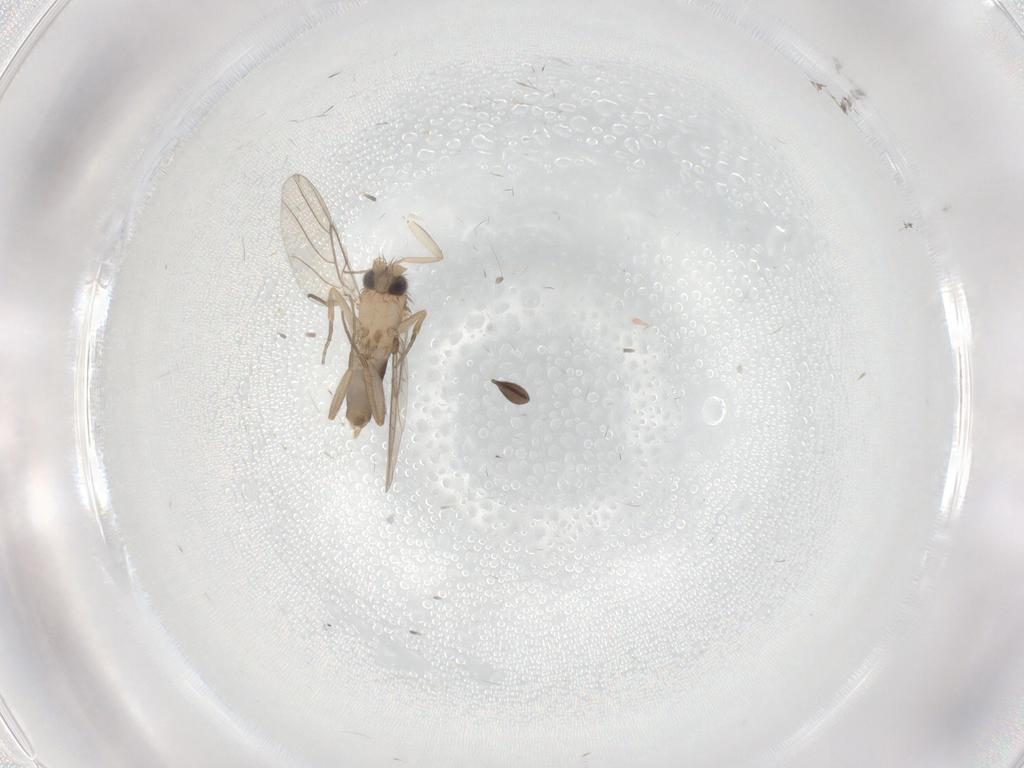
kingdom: Animalia
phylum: Arthropoda
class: Insecta
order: Diptera
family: Phoridae
